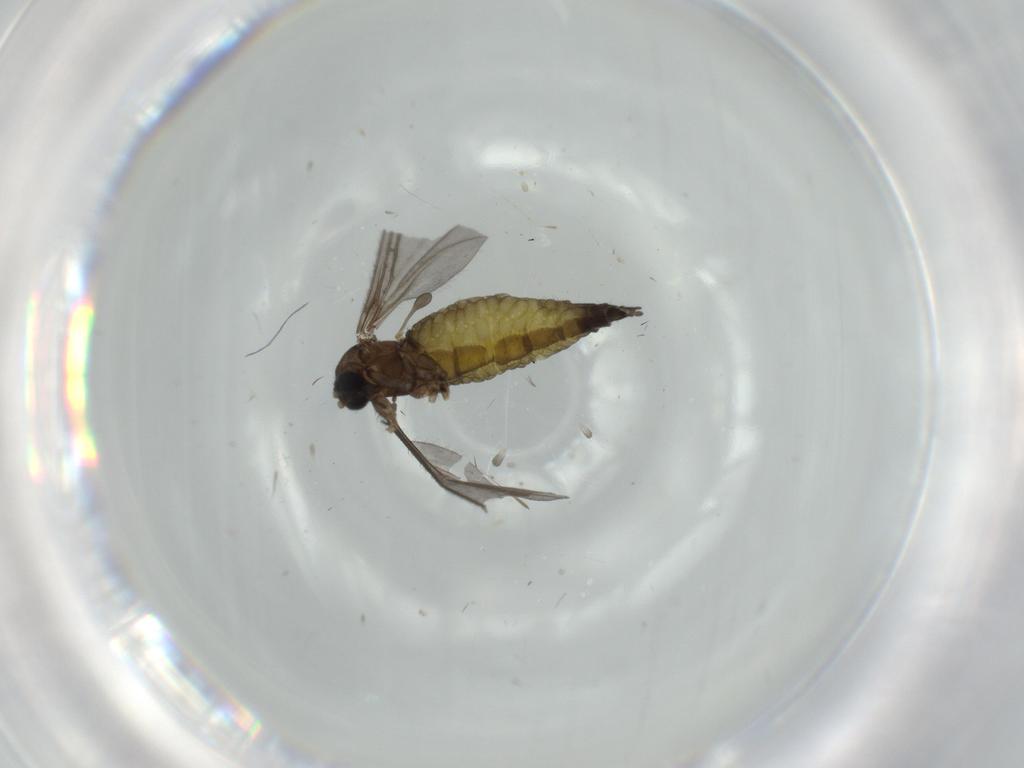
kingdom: Animalia
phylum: Arthropoda
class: Insecta
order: Diptera
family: Sciaridae
